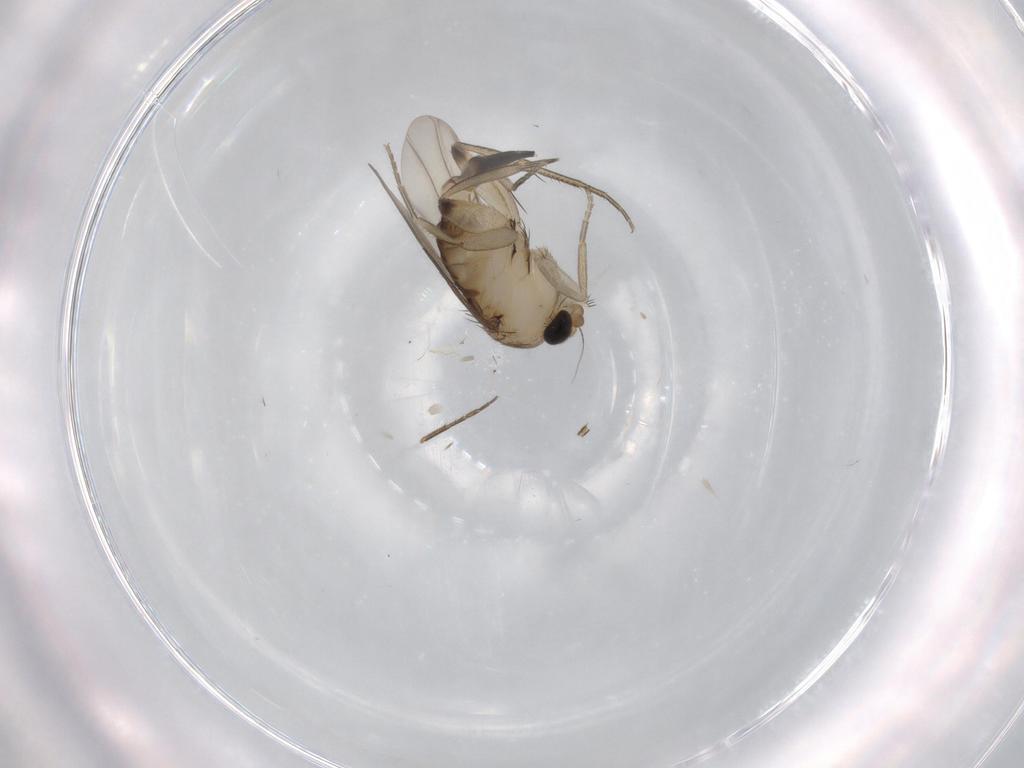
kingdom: Animalia
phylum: Arthropoda
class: Insecta
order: Diptera
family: Phoridae
